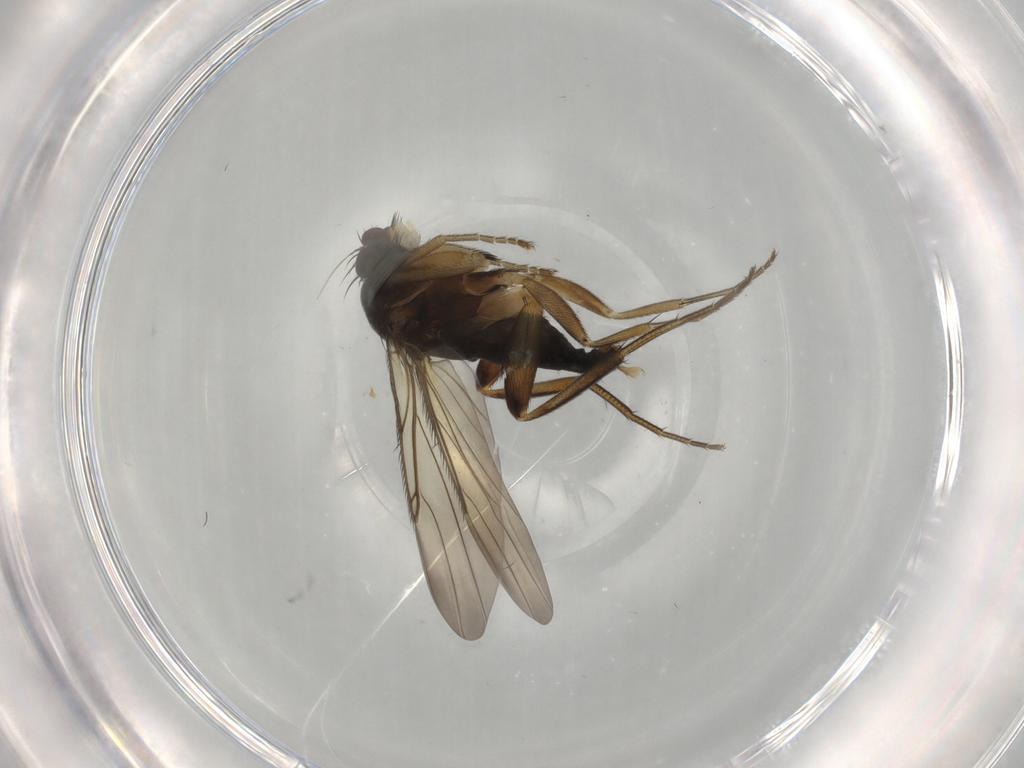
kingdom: Animalia
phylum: Arthropoda
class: Insecta
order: Diptera
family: Phoridae
